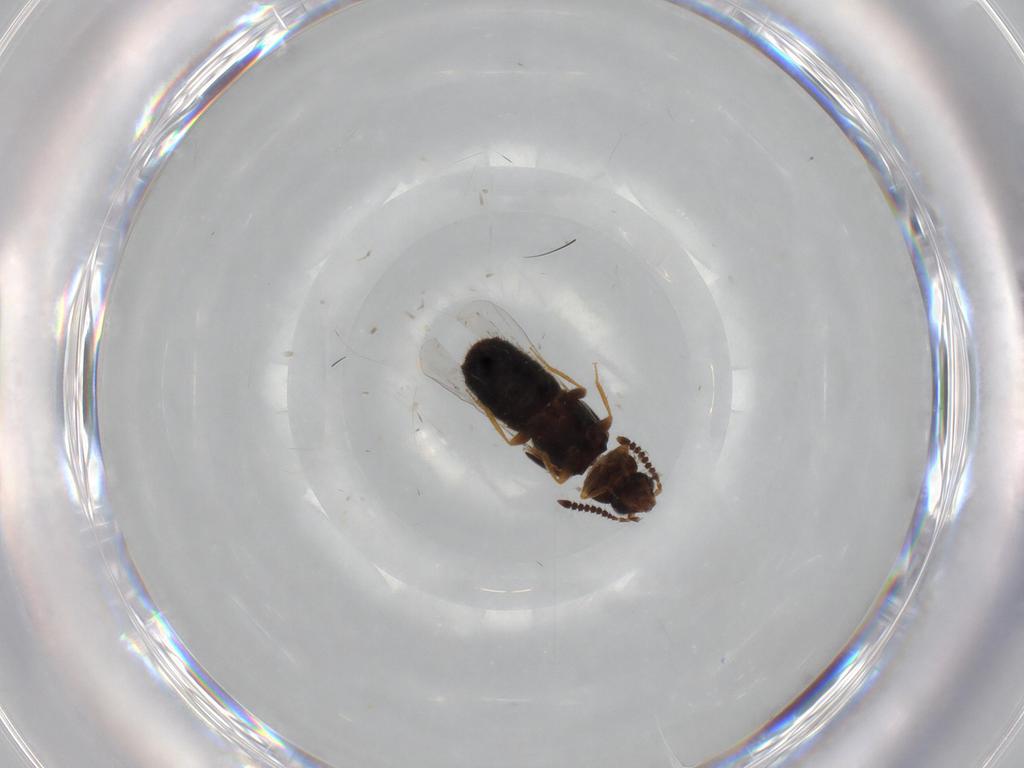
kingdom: Animalia
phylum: Arthropoda
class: Insecta
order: Coleoptera
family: Staphylinidae
